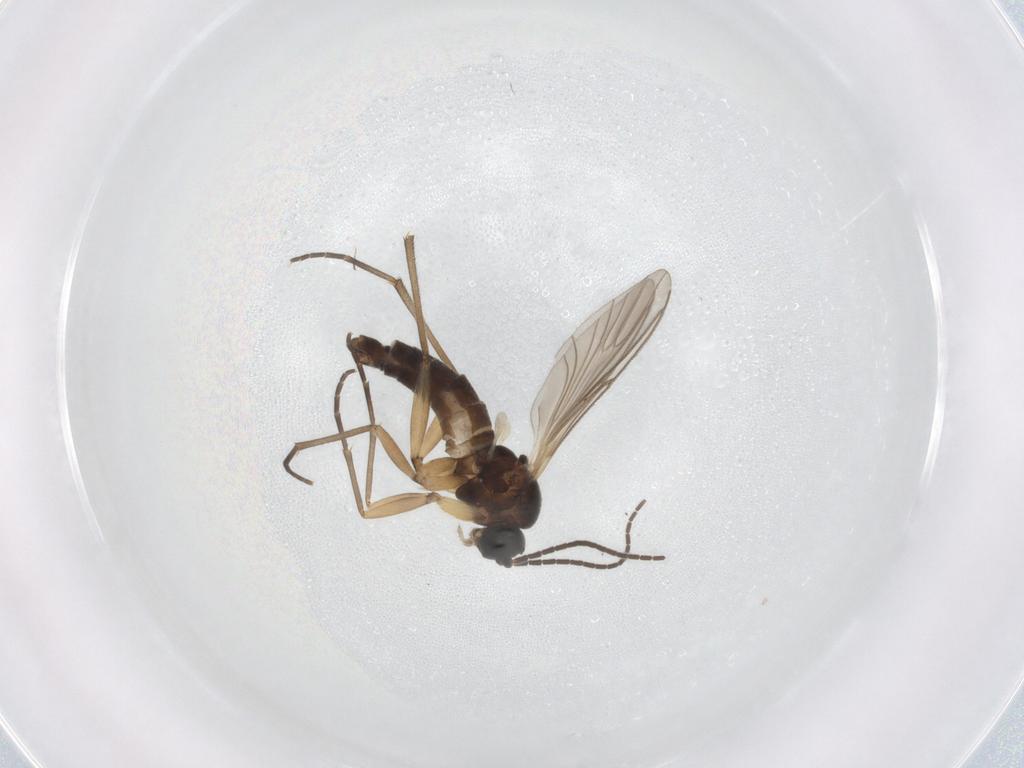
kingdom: Animalia
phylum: Arthropoda
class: Insecta
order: Diptera
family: Sciaridae
